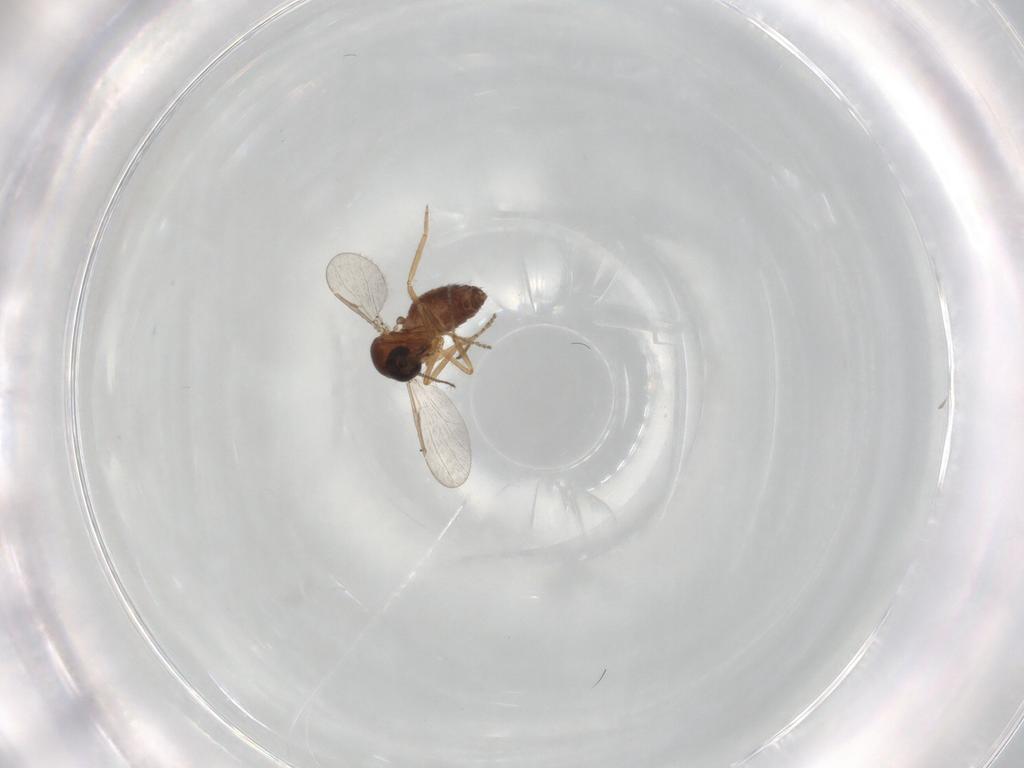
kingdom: Animalia
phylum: Arthropoda
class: Insecta
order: Diptera
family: Ceratopogonidae
